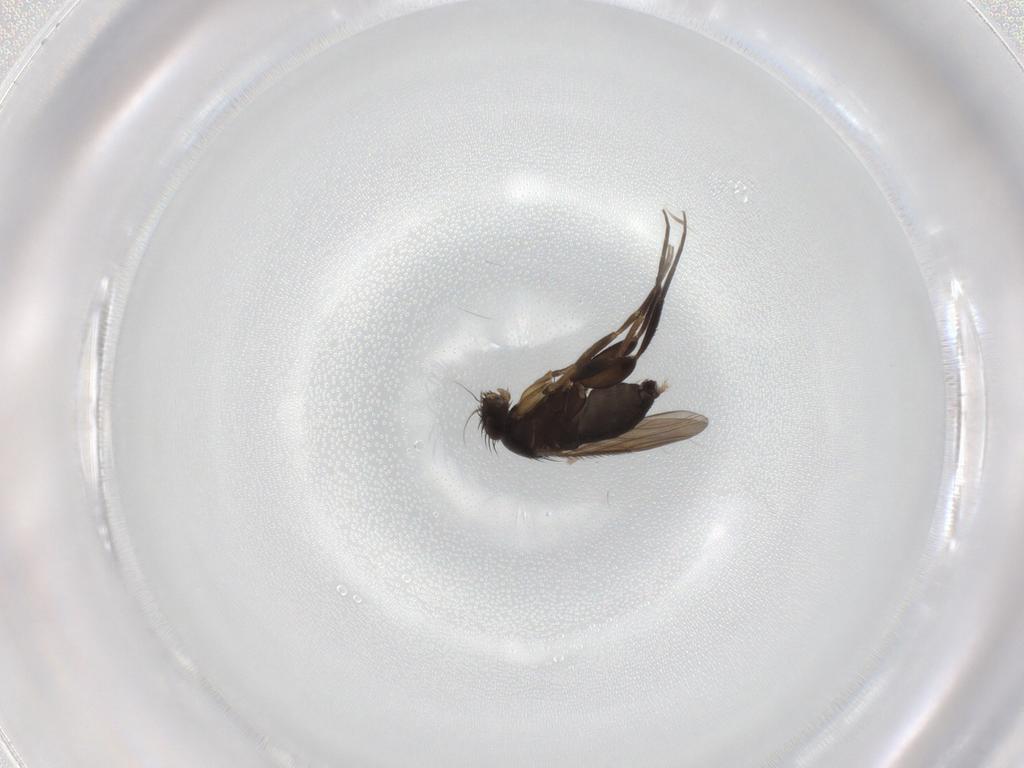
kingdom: Animalia
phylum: Arthropoda
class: Insecta
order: Diptera
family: Phoridae
